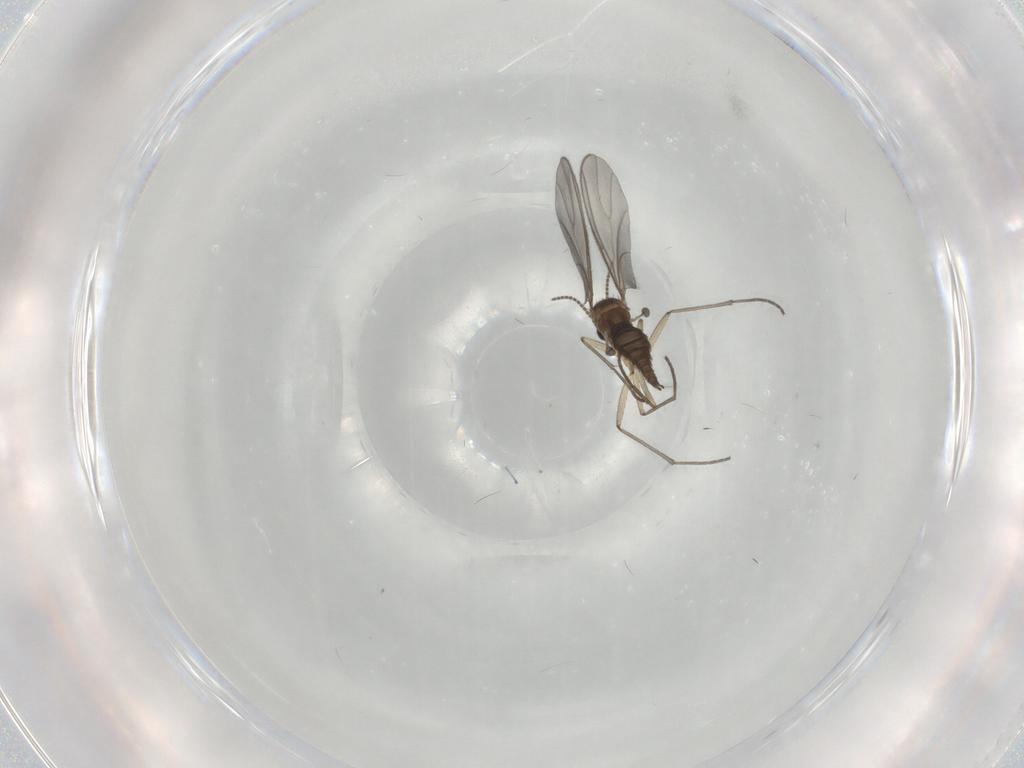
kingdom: Animalia
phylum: Arthropoda
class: Insecta
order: Diptera
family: Sciaridae
